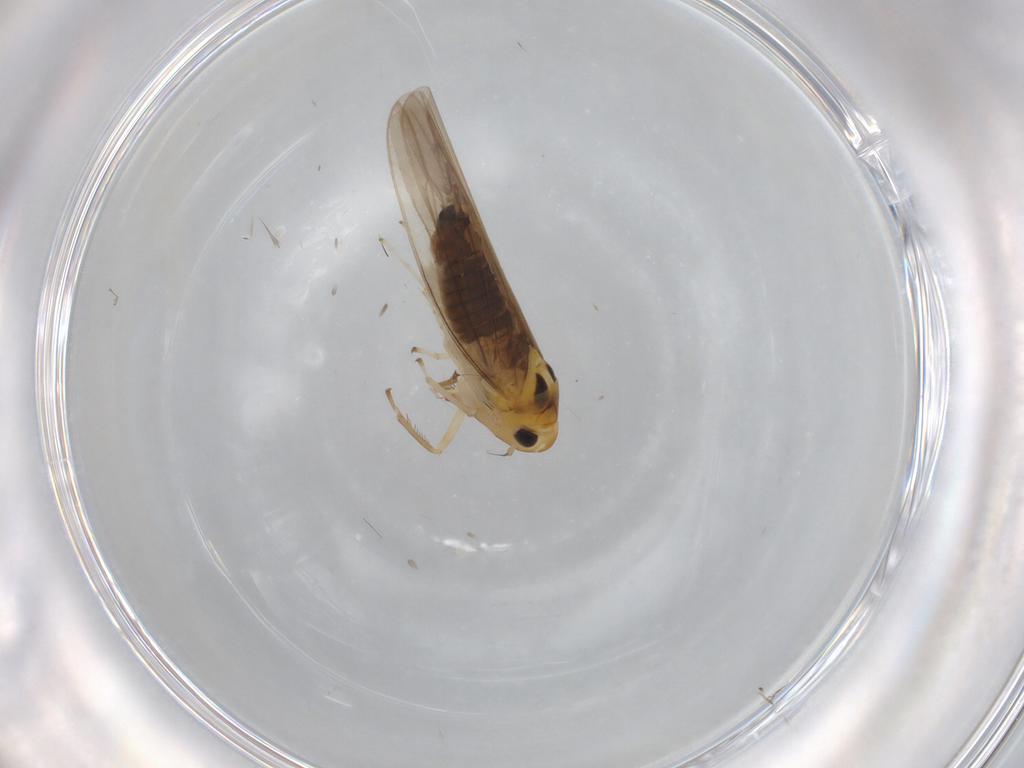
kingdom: Animalia
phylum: Arthropoda
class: Insecta
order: Hemiptera
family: Cicadellidae
